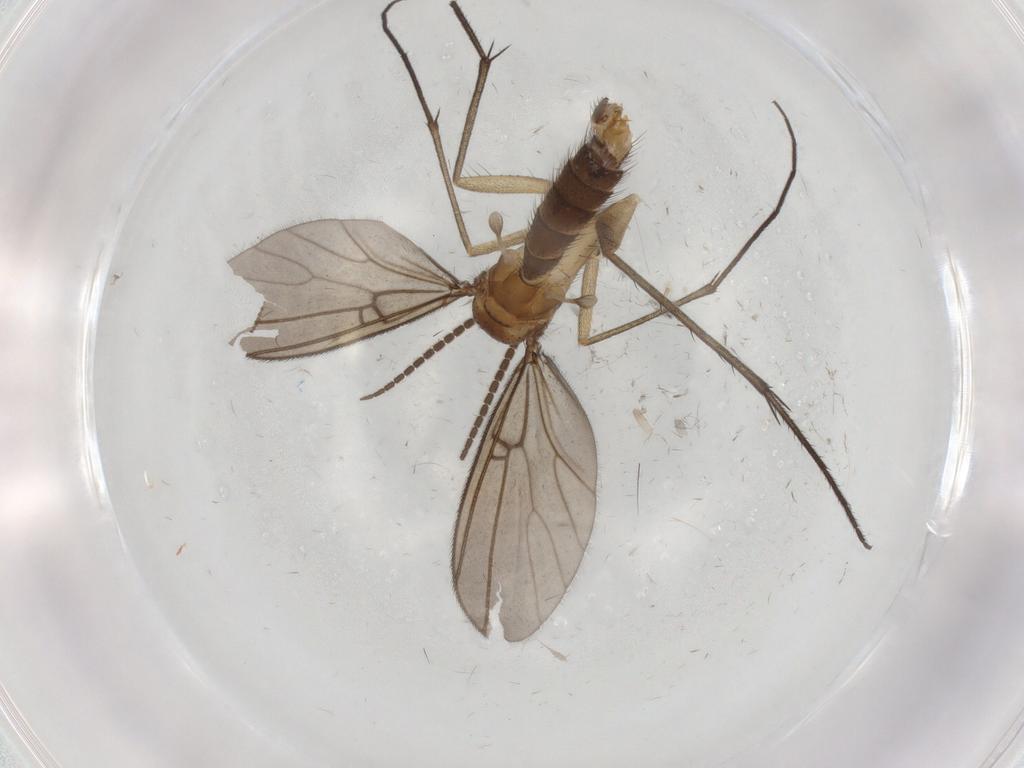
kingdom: Animalia
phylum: Arthropoda
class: Insecta
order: Diptera
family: Mycetophilidae
